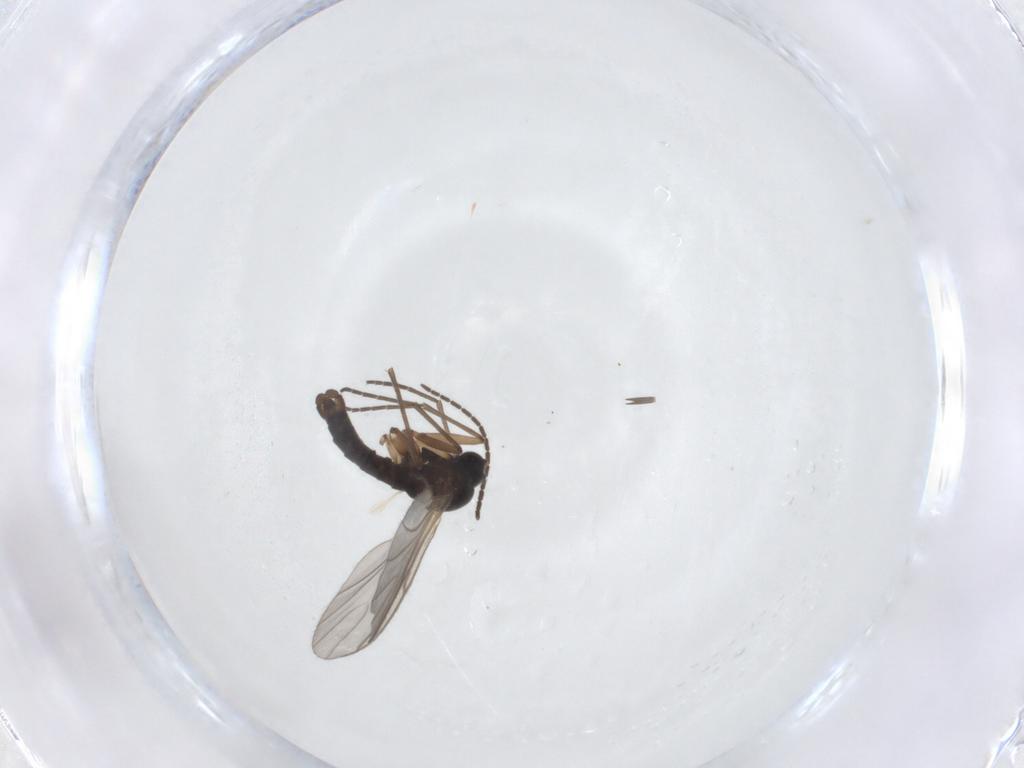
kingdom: Animalia
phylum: Arthropoda
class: Insecta
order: Diptera
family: Sciaridae
